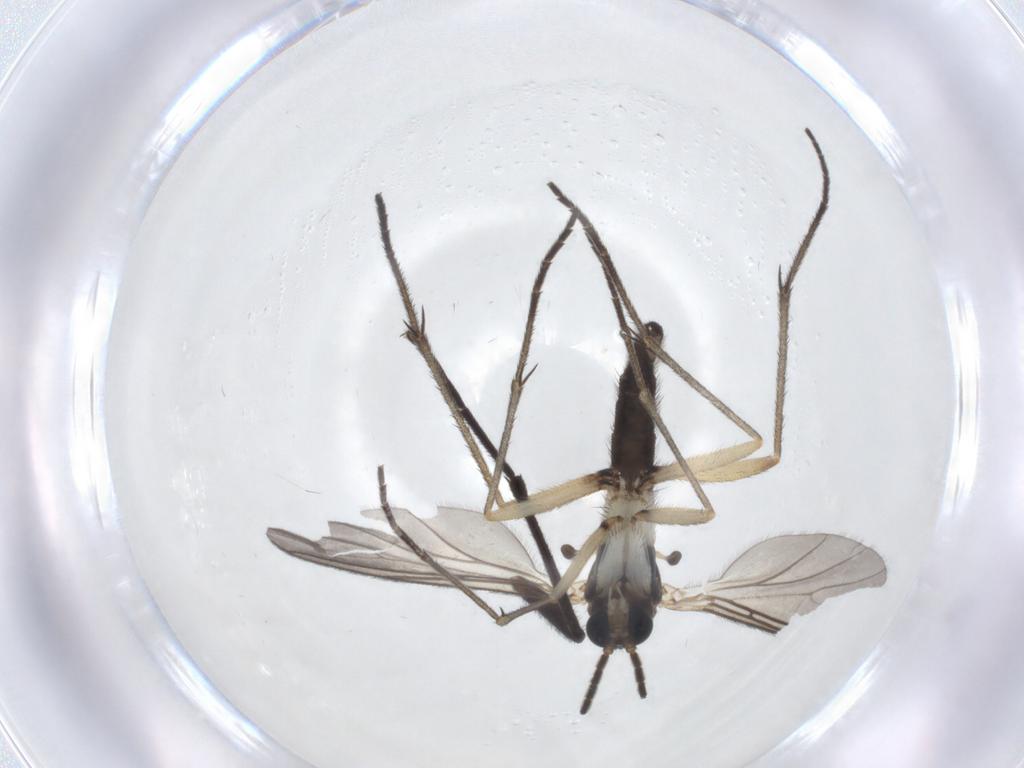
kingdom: Animalia
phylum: Arthropoda
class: Insecta
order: Diptera
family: Sciaridae
